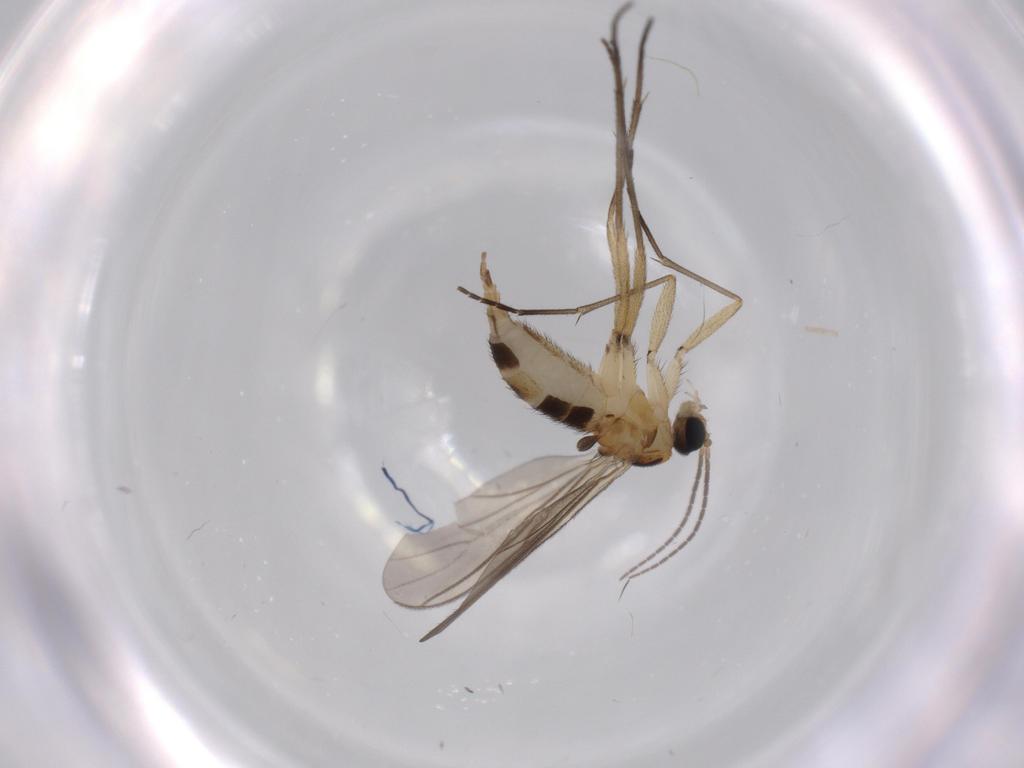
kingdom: Animalia
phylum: Arthropoda
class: Insecta
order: Diptera
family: Sciaridae
